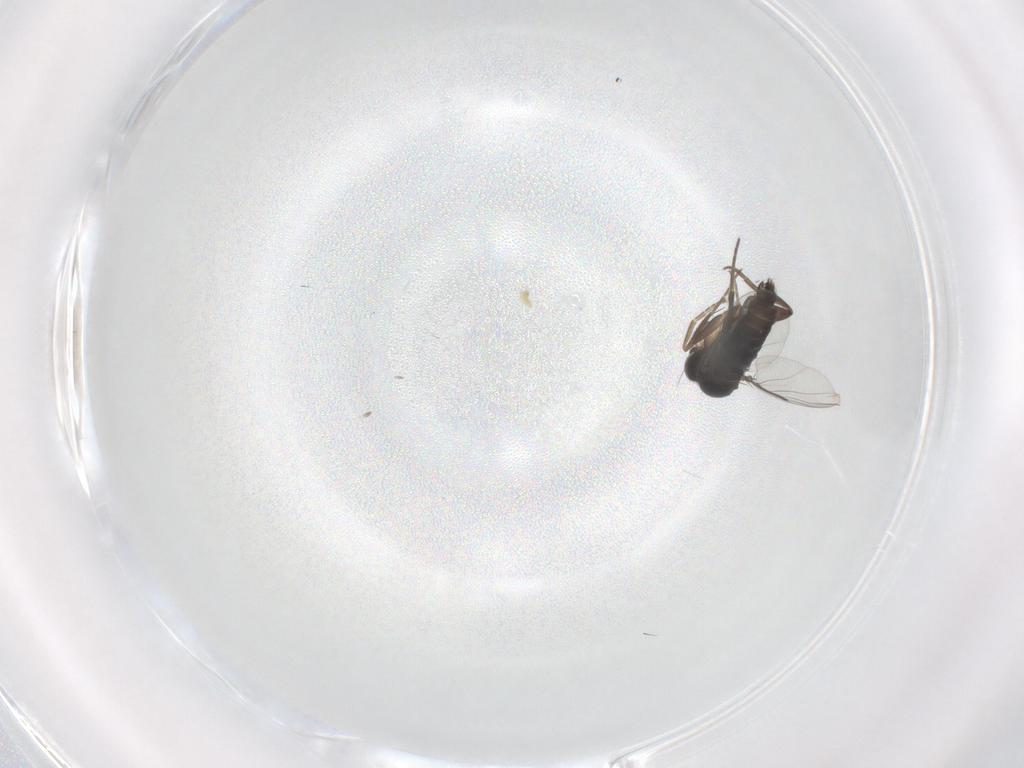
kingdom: Animalia
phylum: Arthropoda
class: Insecta
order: Diptera
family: Phoridae
